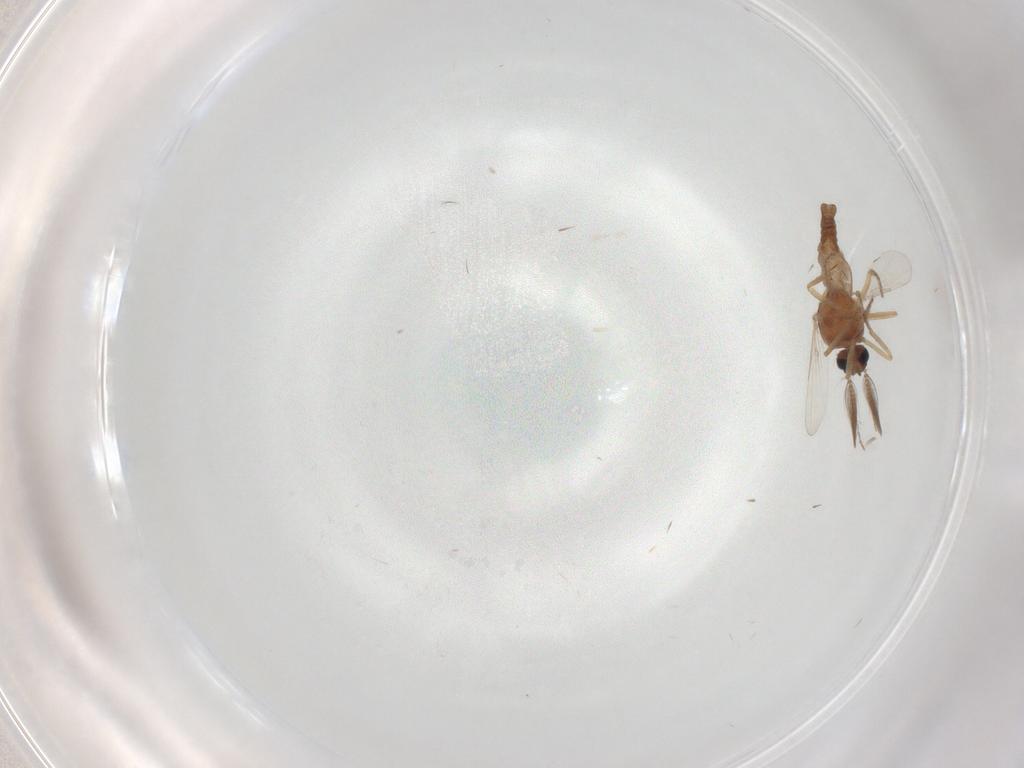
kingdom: Animalia
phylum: Arthropoda
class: Insecta
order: Diptera
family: Ceratopogonidae
